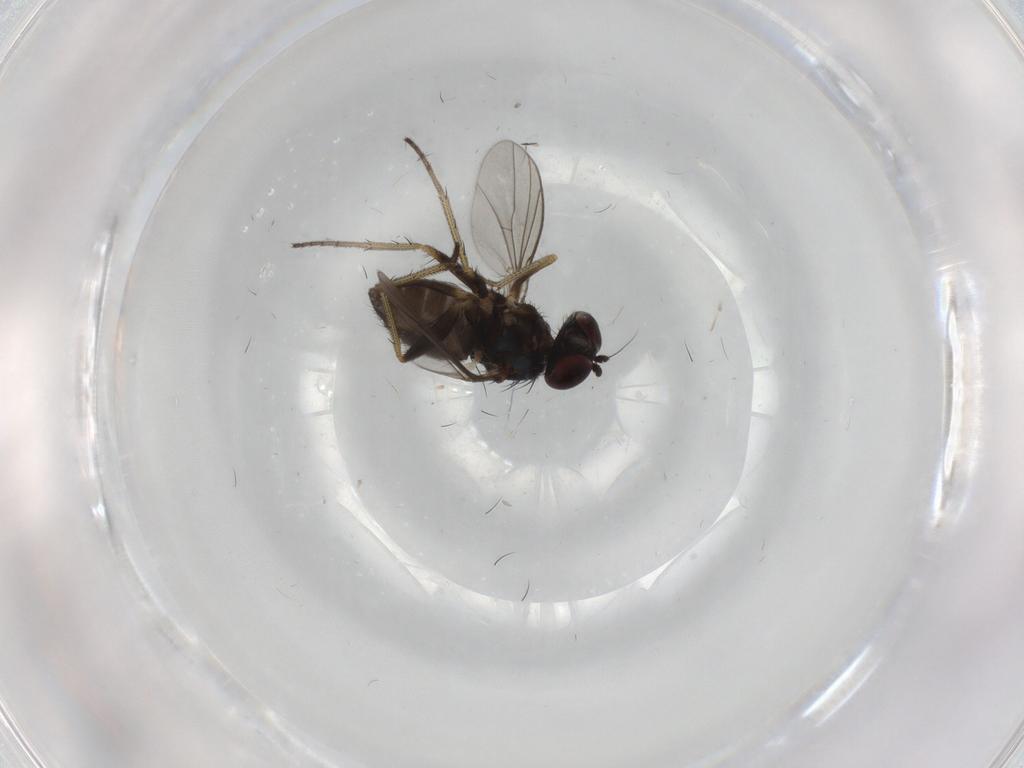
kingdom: Animalia
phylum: Arthropoda
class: Insecta
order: Diptera
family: Phoridae
